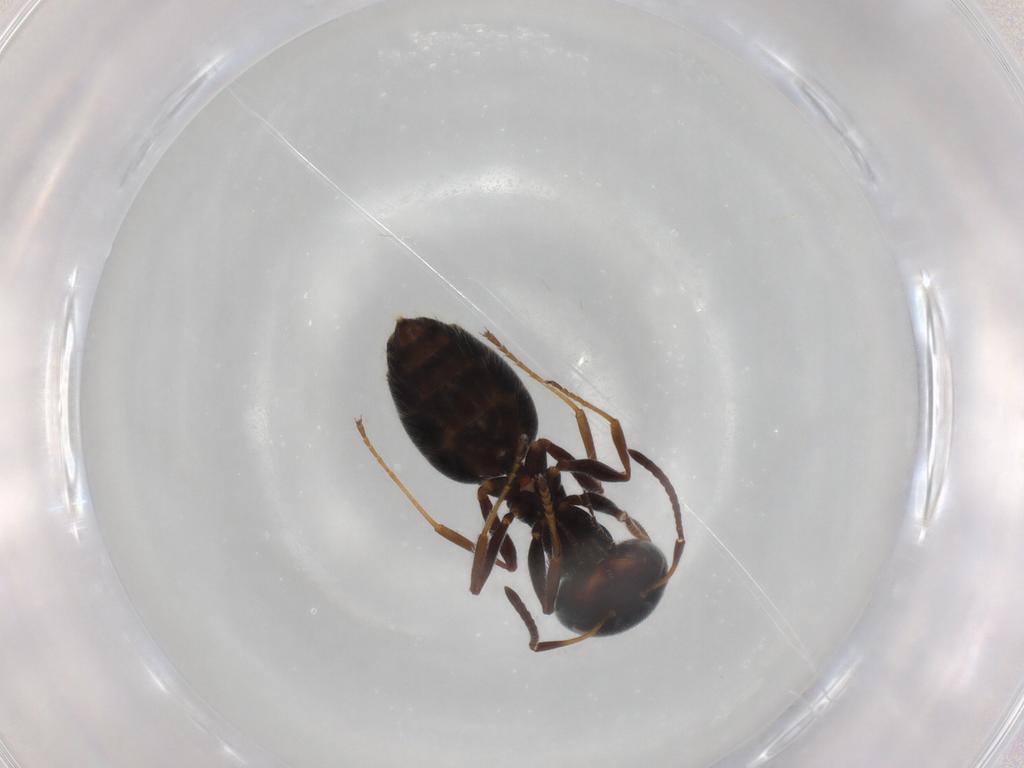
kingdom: Animalia
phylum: Arthropoda
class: Insecta
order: Hymenoptera
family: Formicidae
